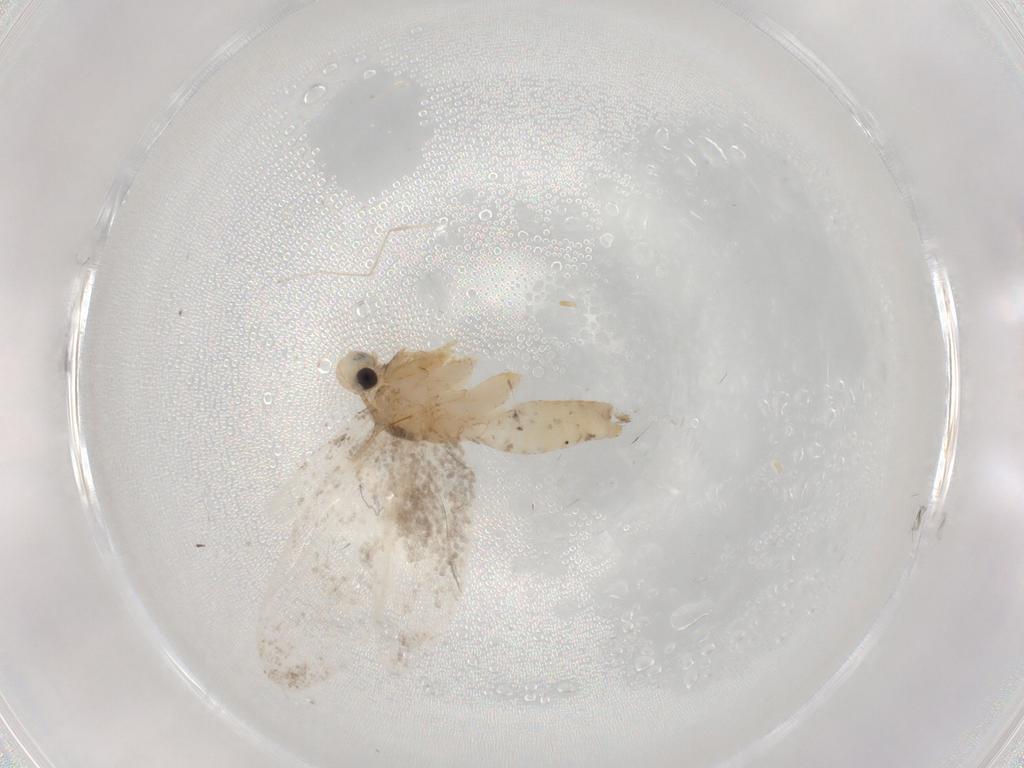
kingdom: Animalia
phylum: Arthropoda
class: Insecta
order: Lepidoptera
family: Psychidae
